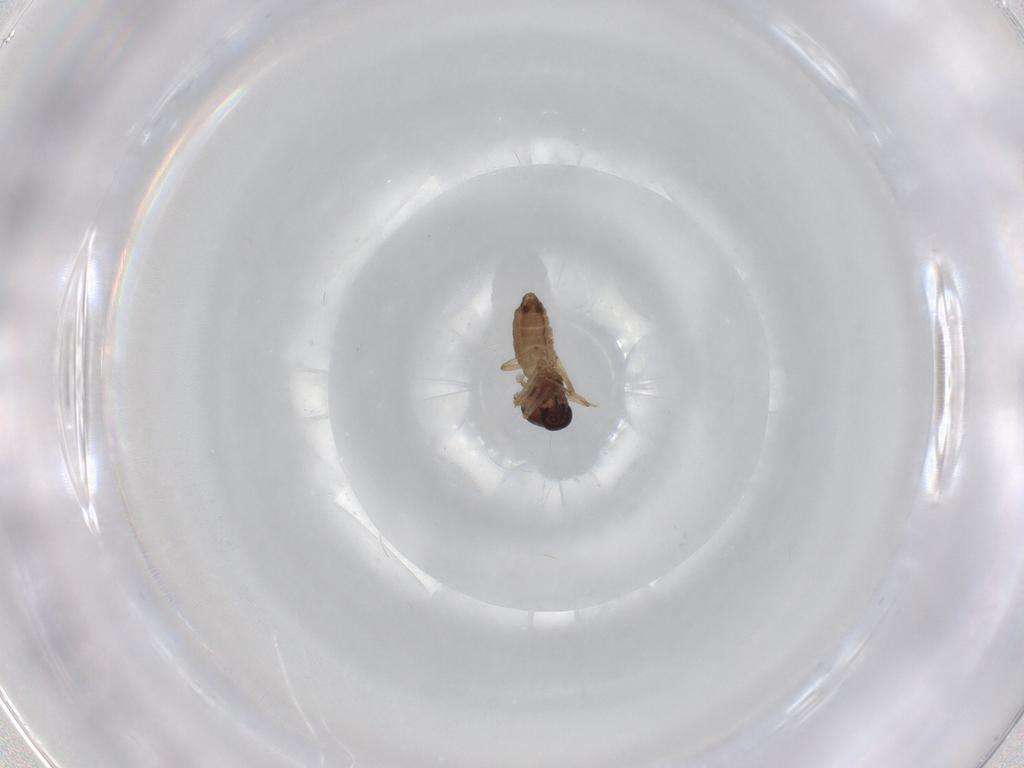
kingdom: Animalia
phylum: Arthropoda
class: Insecta
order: Diptera
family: Ceratopogonidae
